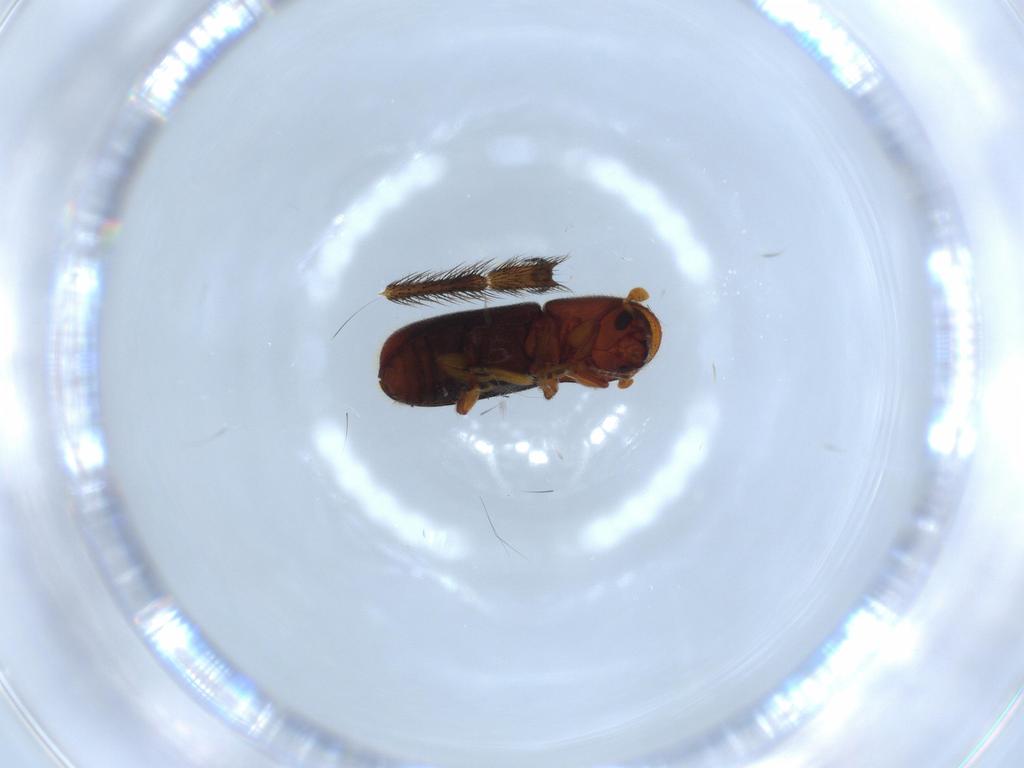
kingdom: Animalia
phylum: Arthropoda
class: Insecta
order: Coleoptera
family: Curculionidae
